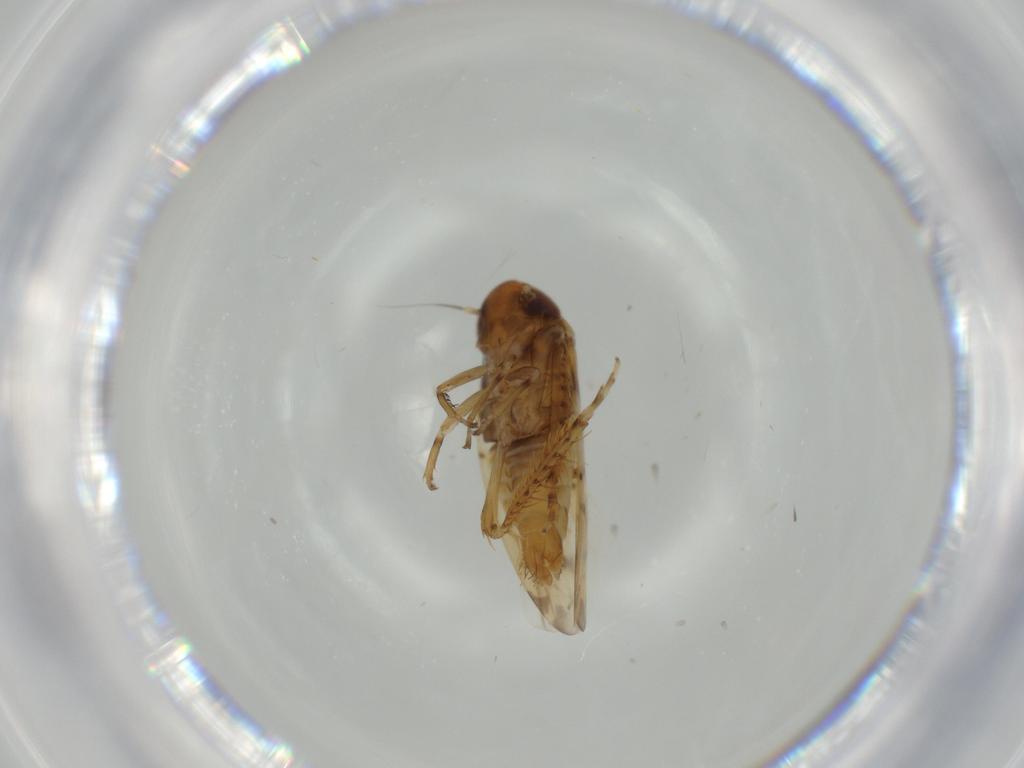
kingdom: Animalia
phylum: Arthropoda
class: Insecta
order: Hemiptera
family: Cicadellidae
